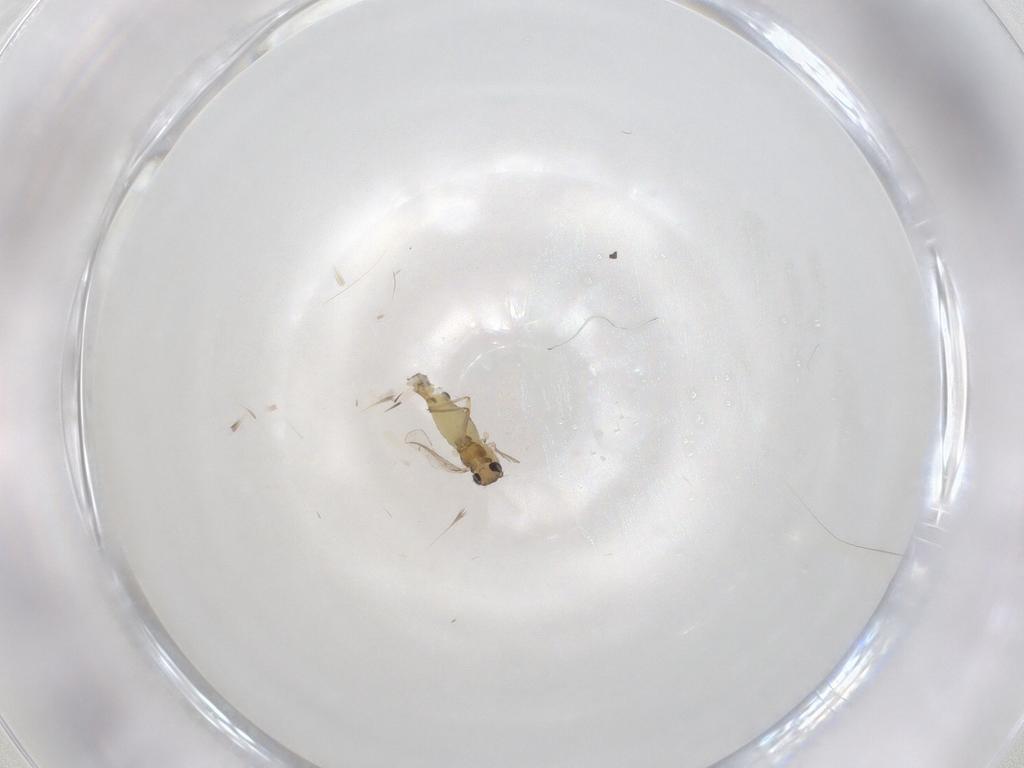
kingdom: Animalia
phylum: Arthropoda
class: Insecta
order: Diptera
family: Chironomidae
